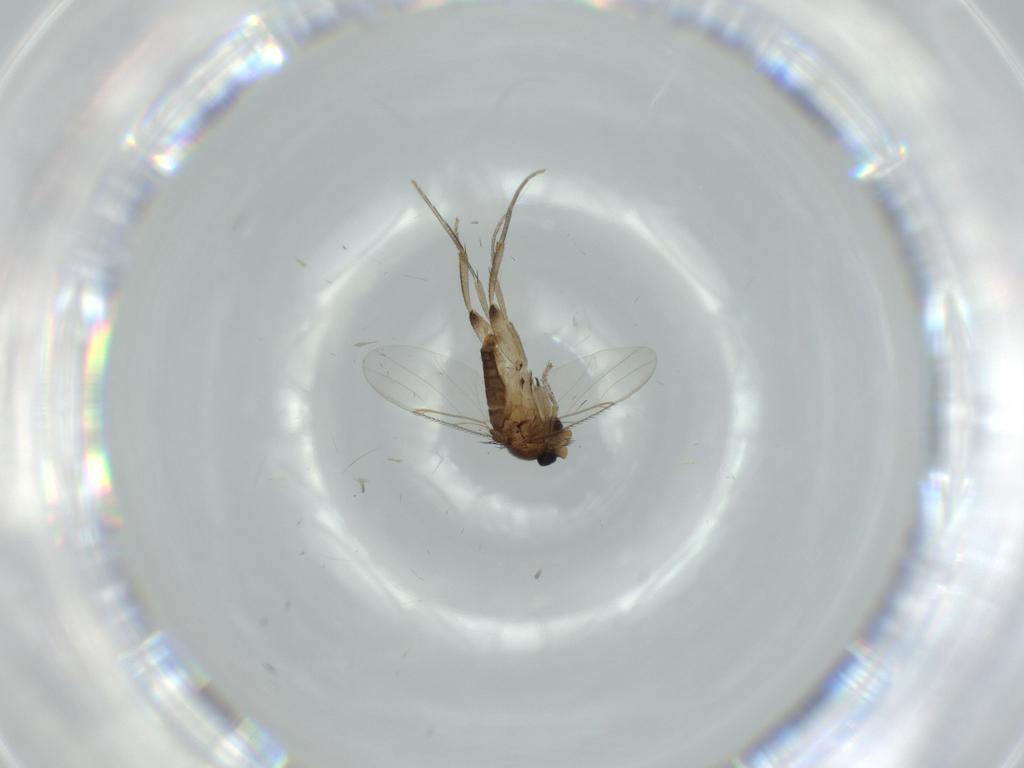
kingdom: Animalia
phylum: Arthropoda
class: Insecta
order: Diptera
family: Phoridae
